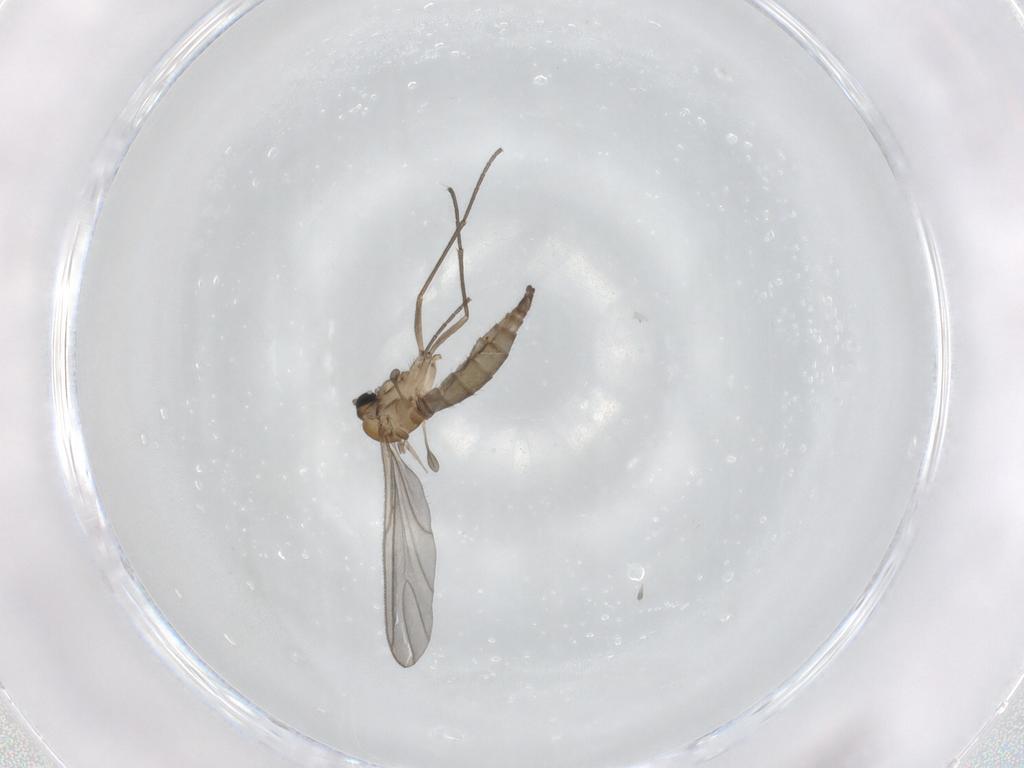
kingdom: Animalia
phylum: Arthropoda
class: Insecta
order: Diptera
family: Sciaridae
